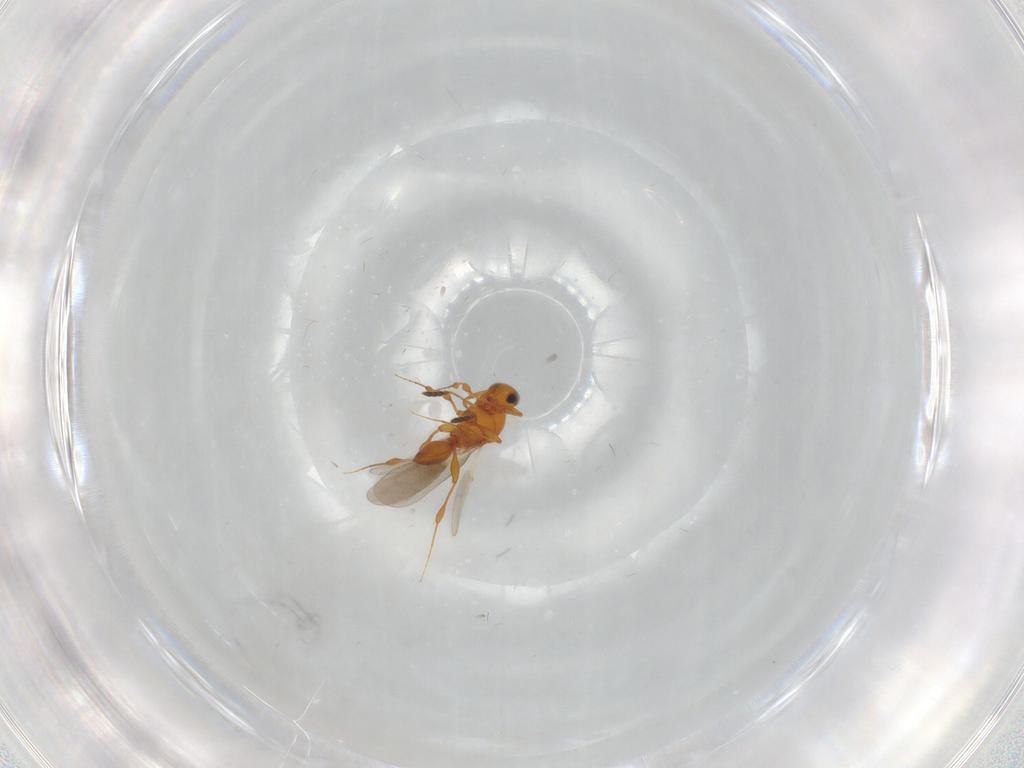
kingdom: Animalia
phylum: Arthropoda
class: Insecta
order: Hymenoptera
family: Platygastridae
